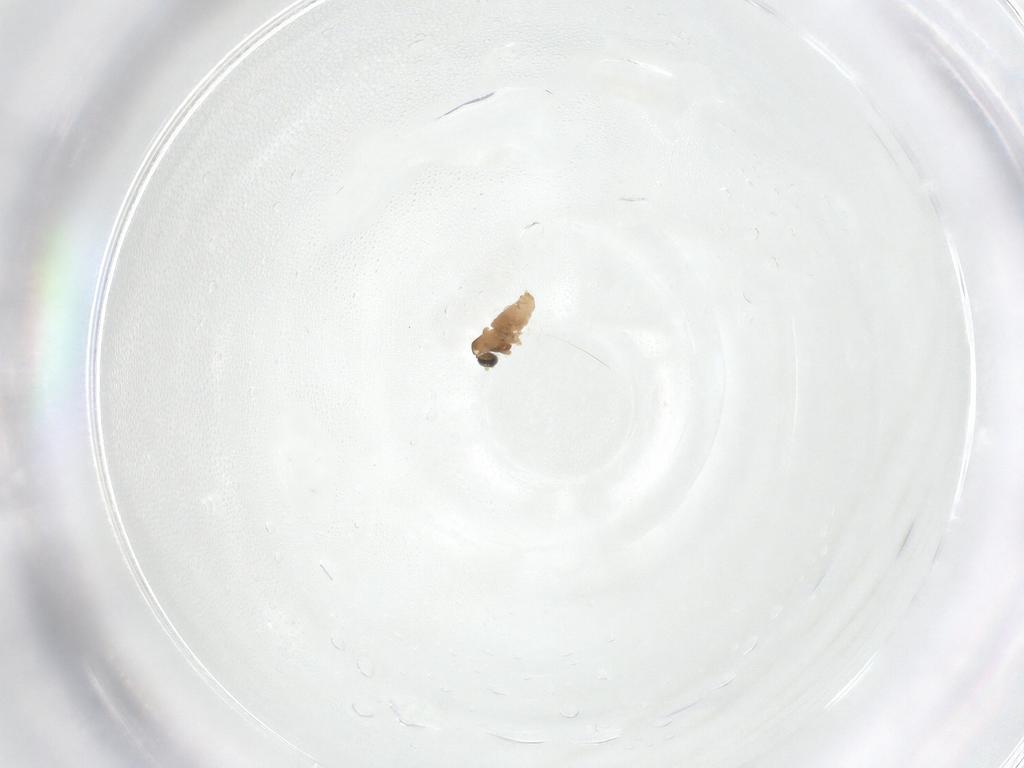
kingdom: Animalia
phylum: Arthropoda
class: Insecta
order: Diptera
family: Cecidomyiidae
